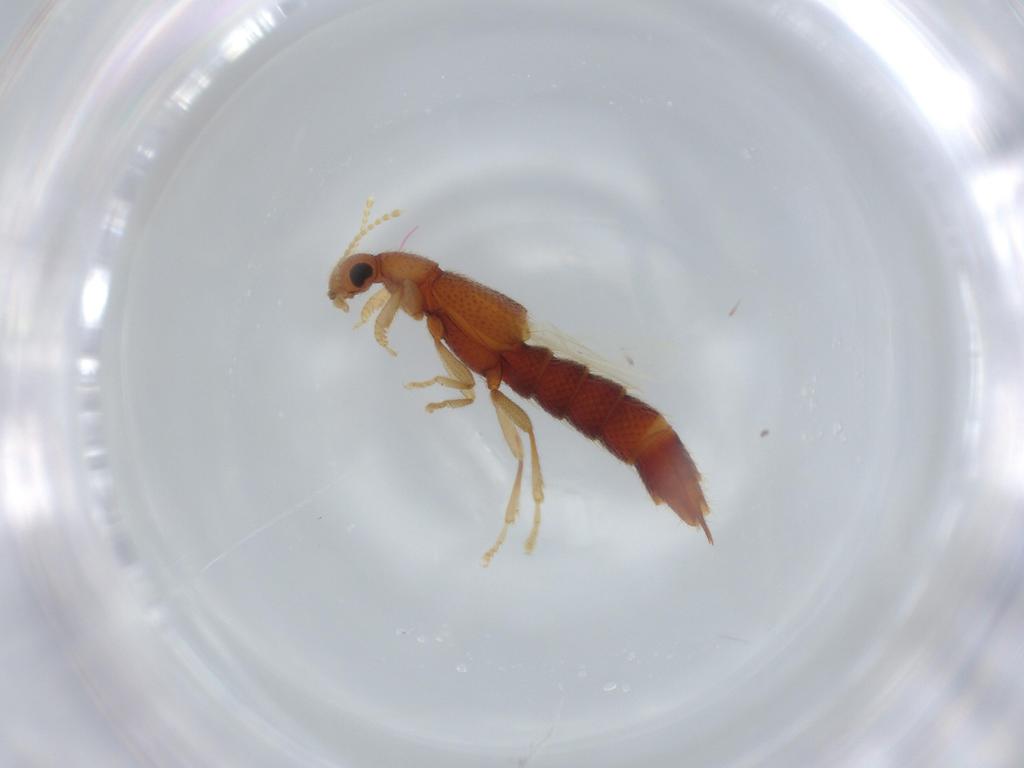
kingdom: Animalia
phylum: Arthropoda
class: Insecta
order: Coleoptera
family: Staphylinidae
